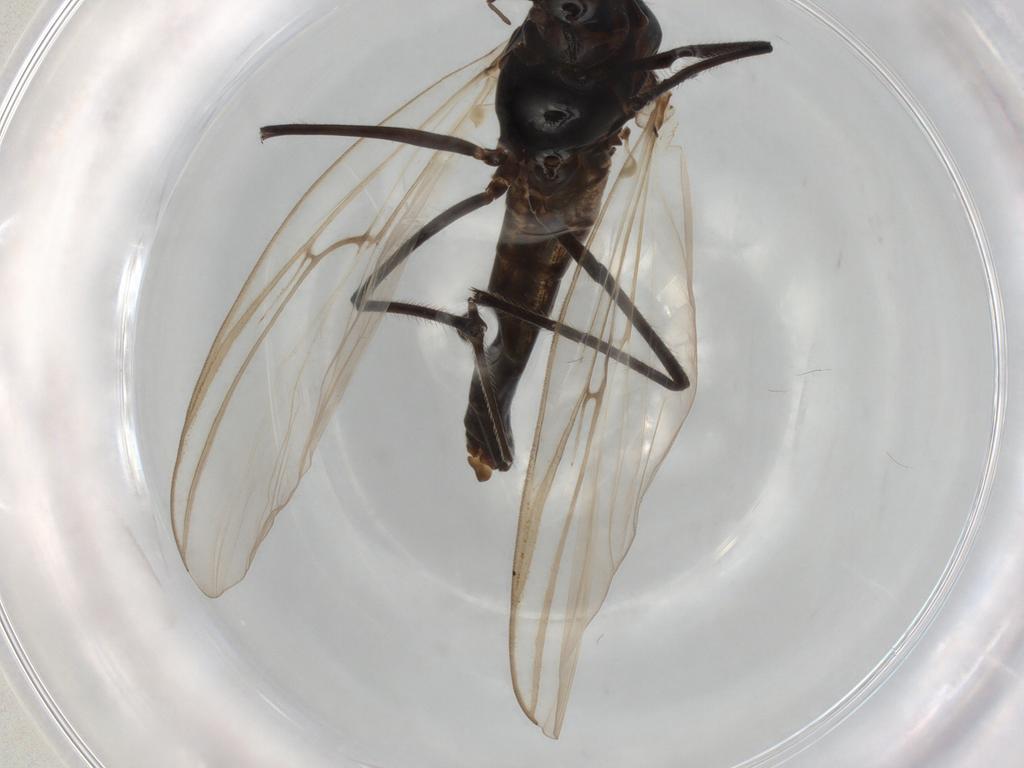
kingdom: Animalia
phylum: Arthropoda
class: Insecta
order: Diptera
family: Chironomidae
